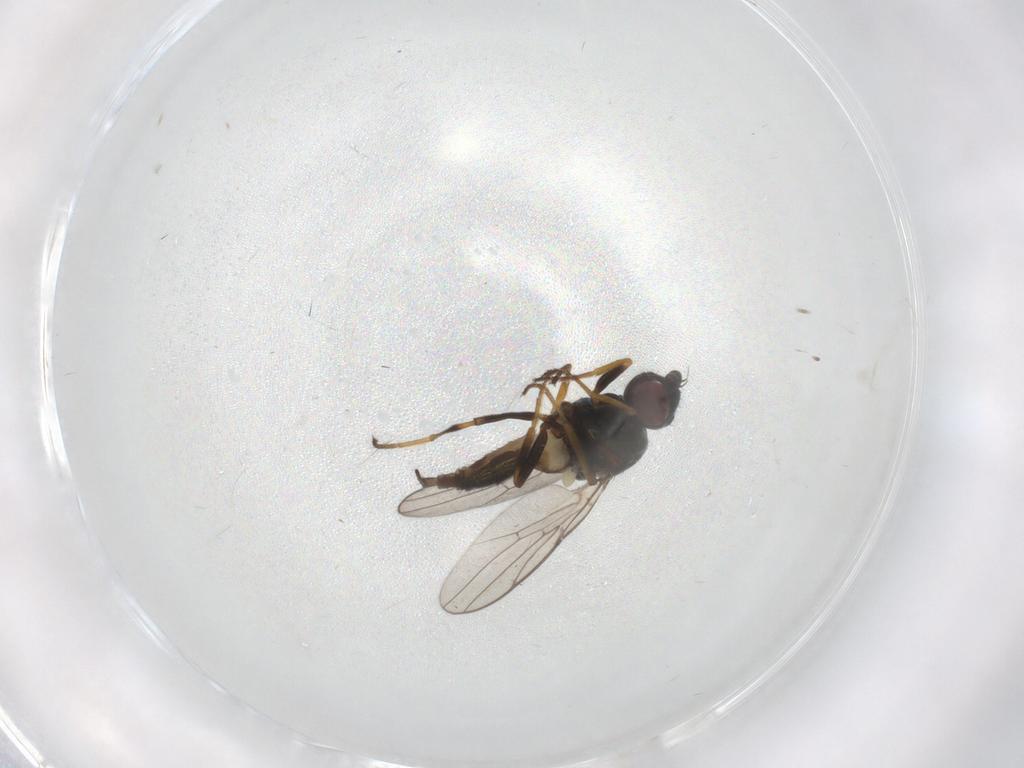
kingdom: Animalia
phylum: Arthropoda
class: Insecta
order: Diptera
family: Chloropidae
